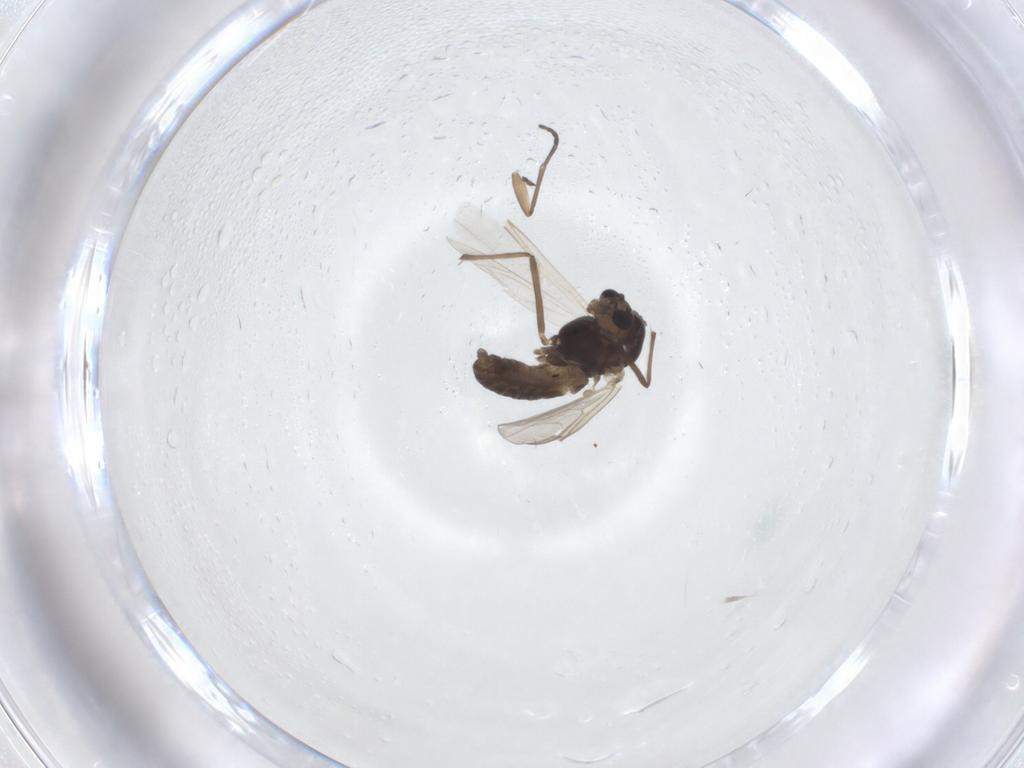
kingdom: Animalia
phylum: Arthropoda
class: Insecta
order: Diptera
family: Chironomidae
